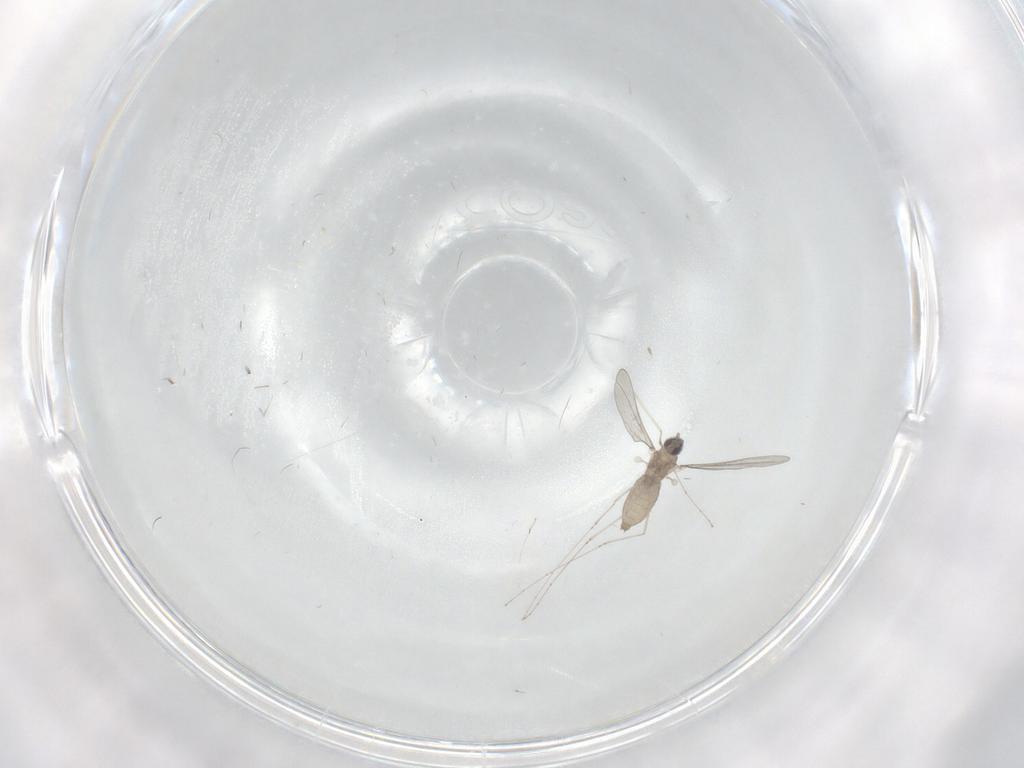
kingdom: Animalia
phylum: Arthropoda
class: Insecta
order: Diptera
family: Cecidomyiidae
